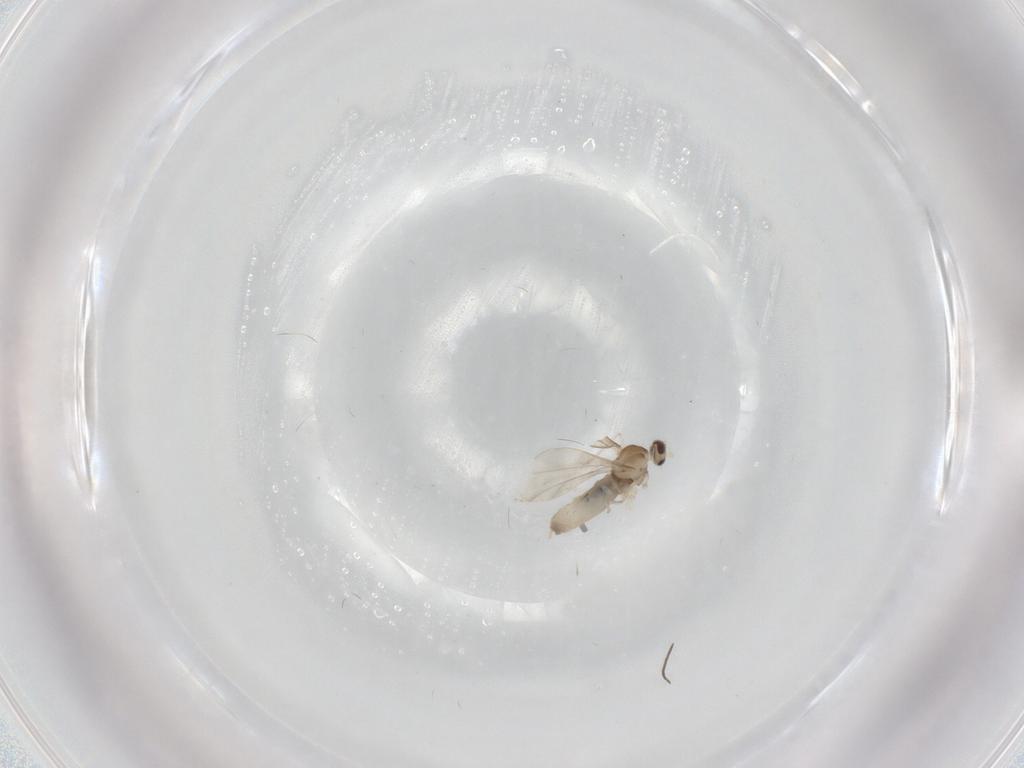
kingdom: Animalia
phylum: Arthropoda
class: Insecta
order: Diptera
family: Cecidomyiidae
